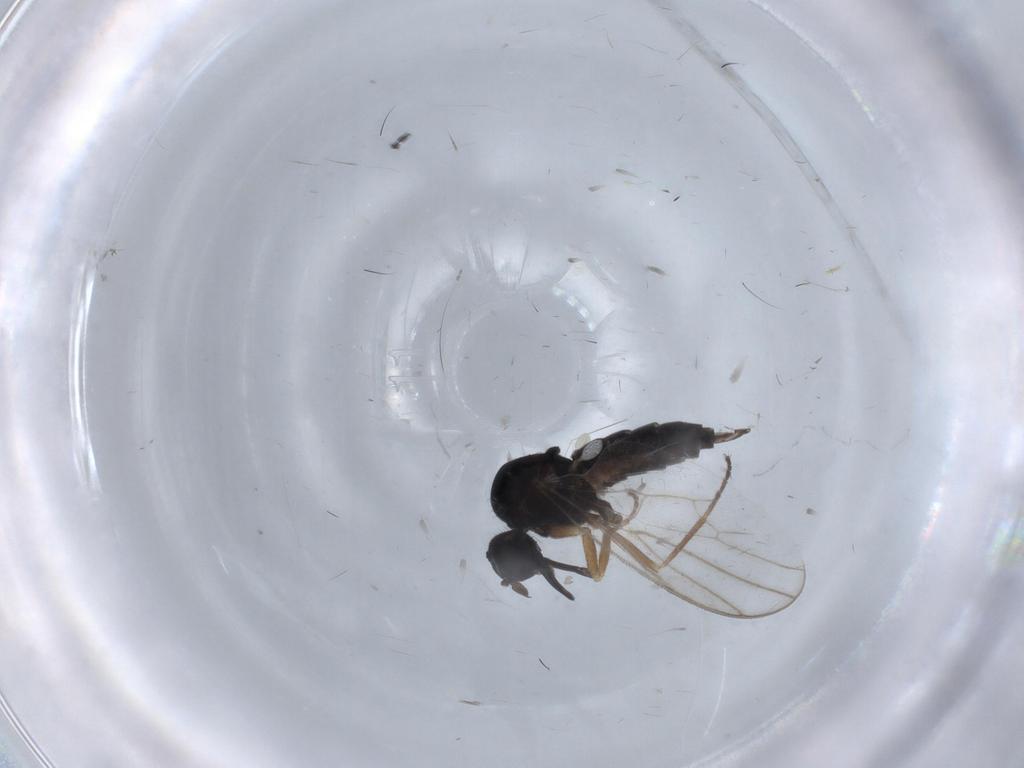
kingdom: Animalia
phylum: Arthropoda
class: Insecta
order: Diptera
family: Hybotidae
